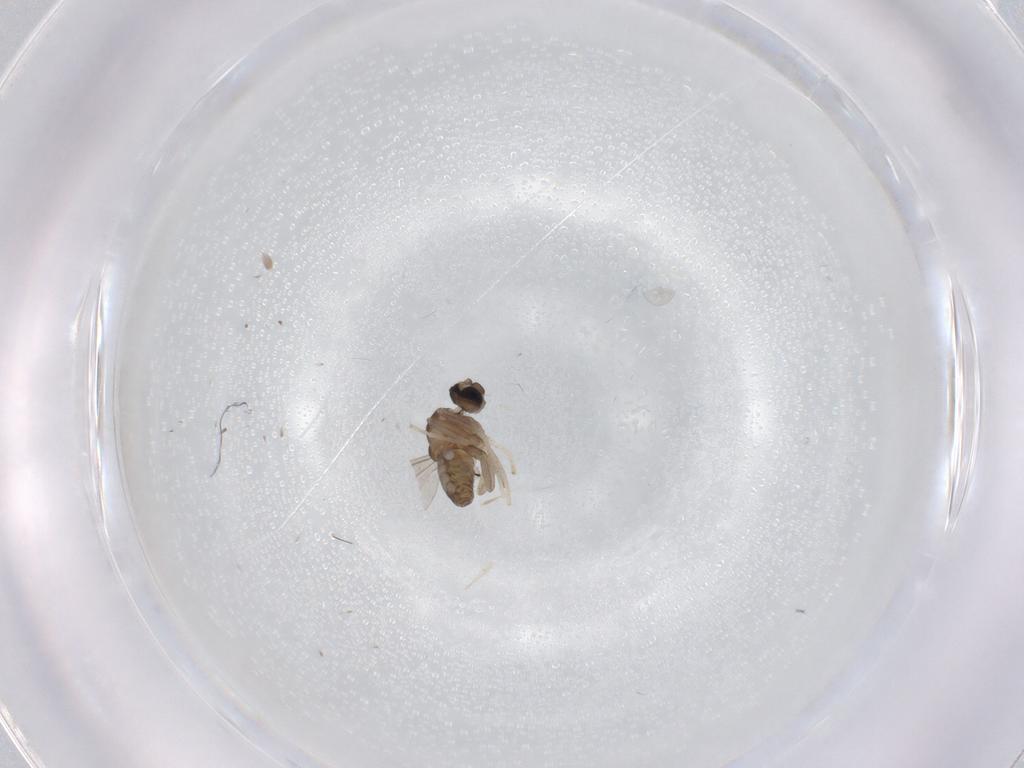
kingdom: Animalia
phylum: Arthropoda
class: Insecta
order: Diptera
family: Cecidomyiidae
